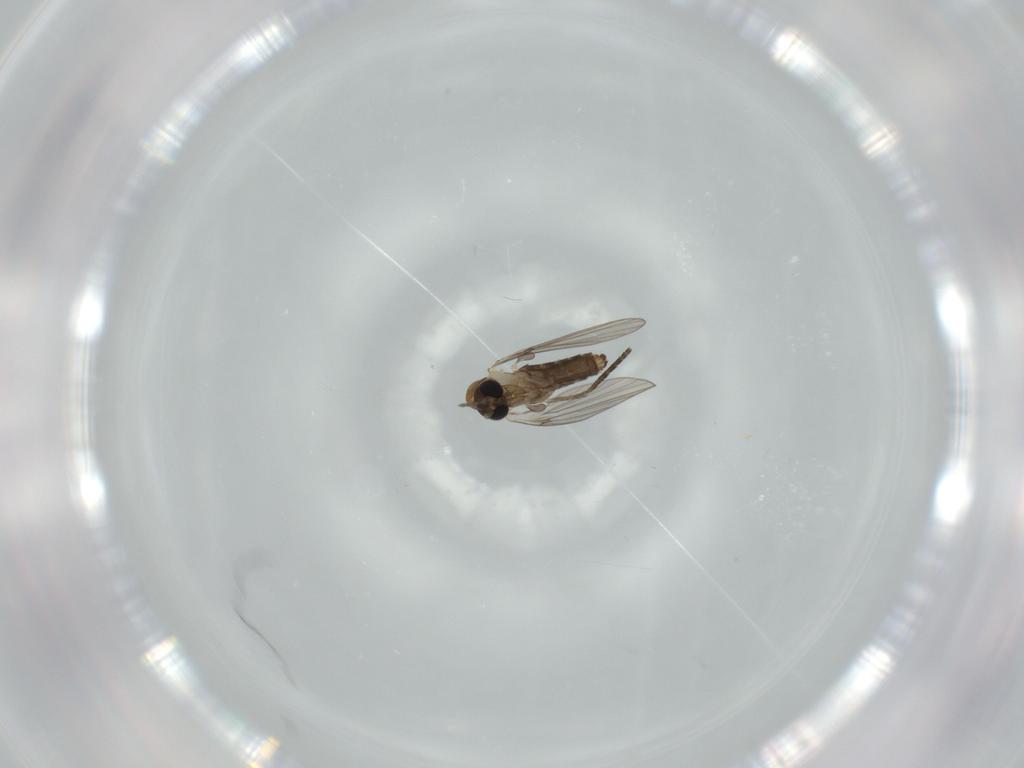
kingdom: Animalia
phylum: Arthropoda
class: Insecta
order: Diptera
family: Psychodidae
